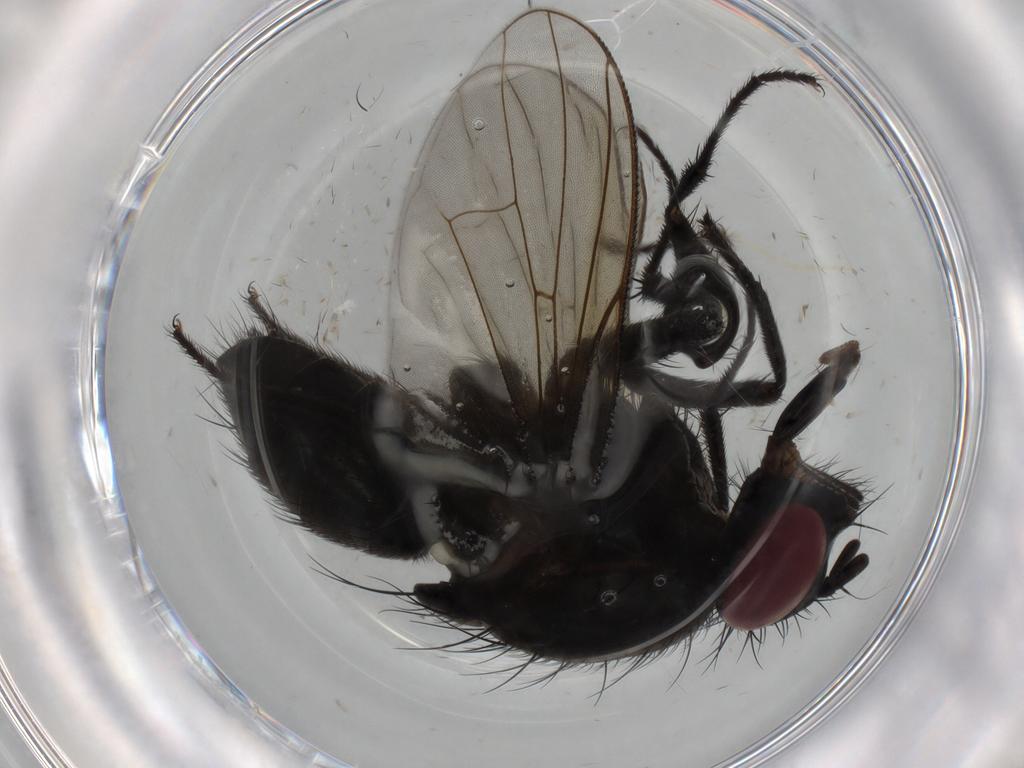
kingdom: Animalia
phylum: Arthropoda
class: Insecta
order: Diptera
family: Muscidae
